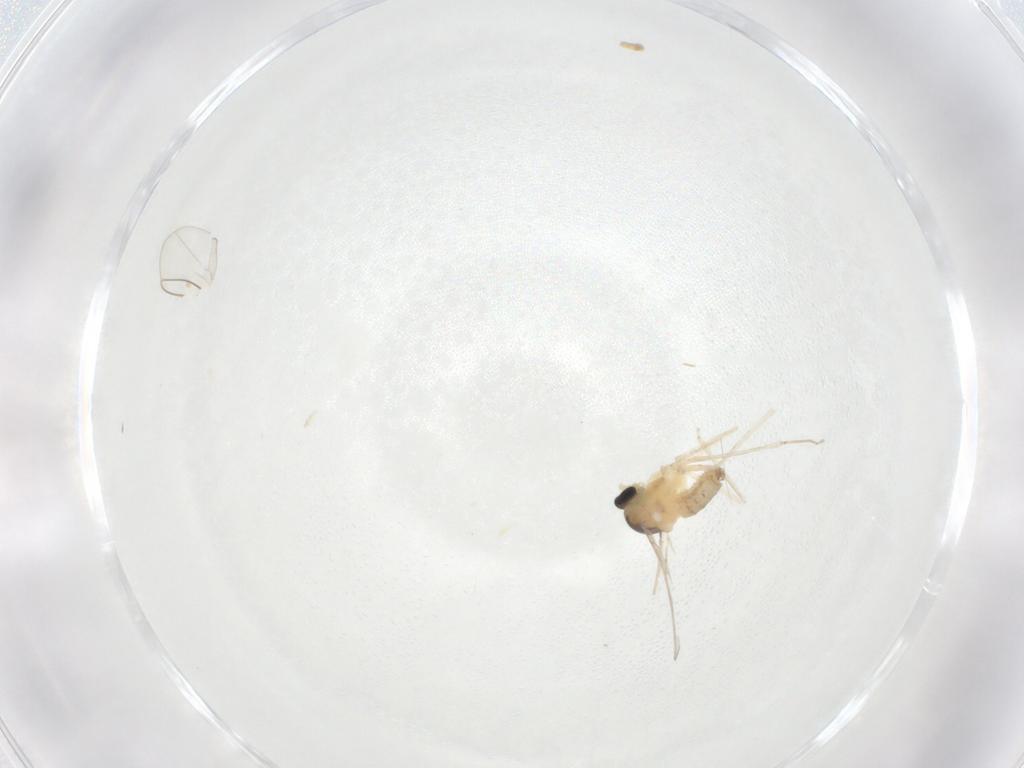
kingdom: Animalia
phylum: Arthropoda
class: Insecta
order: Diptera
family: Cecidomyiidae
